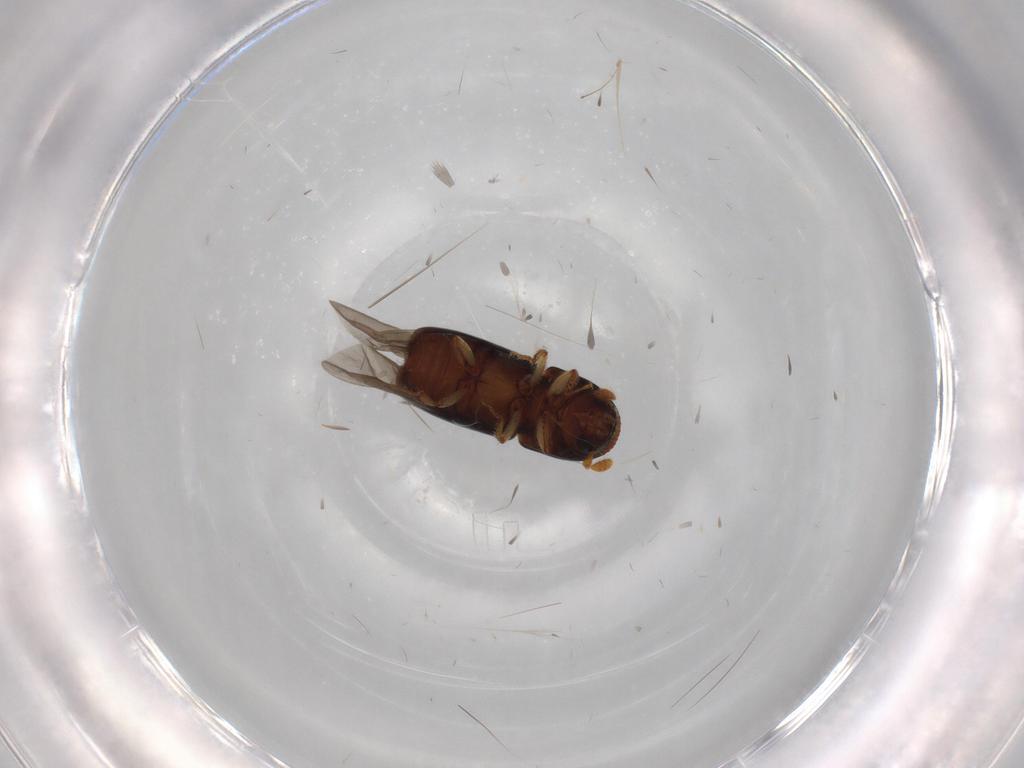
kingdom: Animalia
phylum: Arthropoda
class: Insecta
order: Coleoptera
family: Curculionidae
